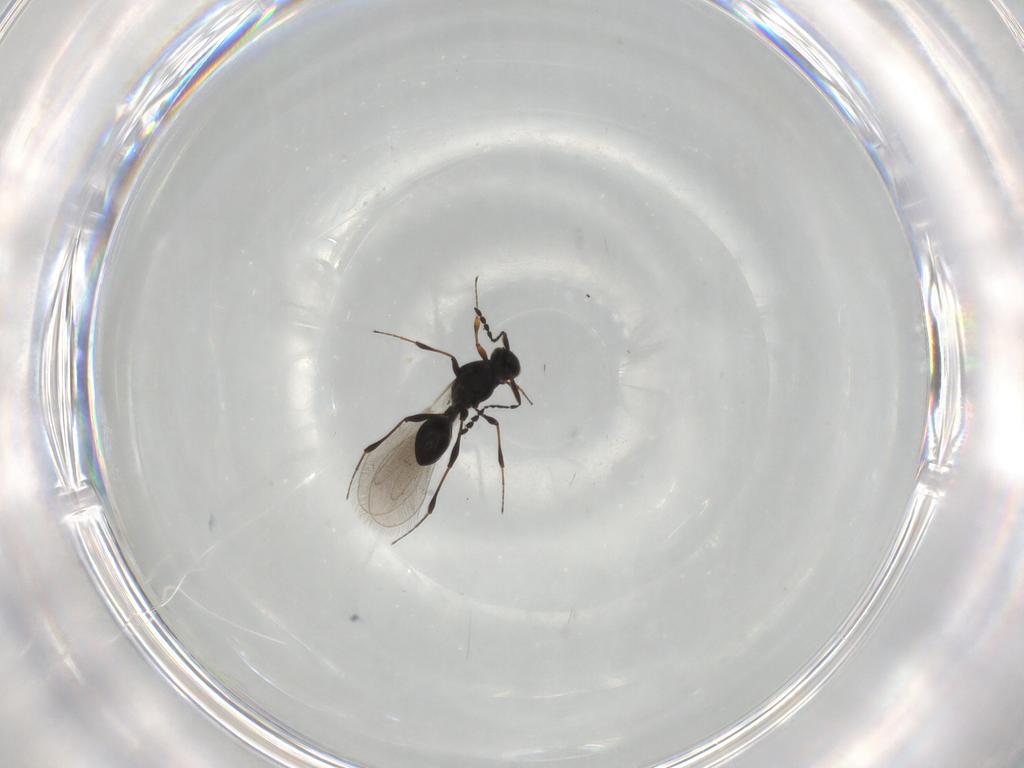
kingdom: Animalia
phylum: Arthropoda
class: Insecta
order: Hymenoptera
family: Platygastridae
